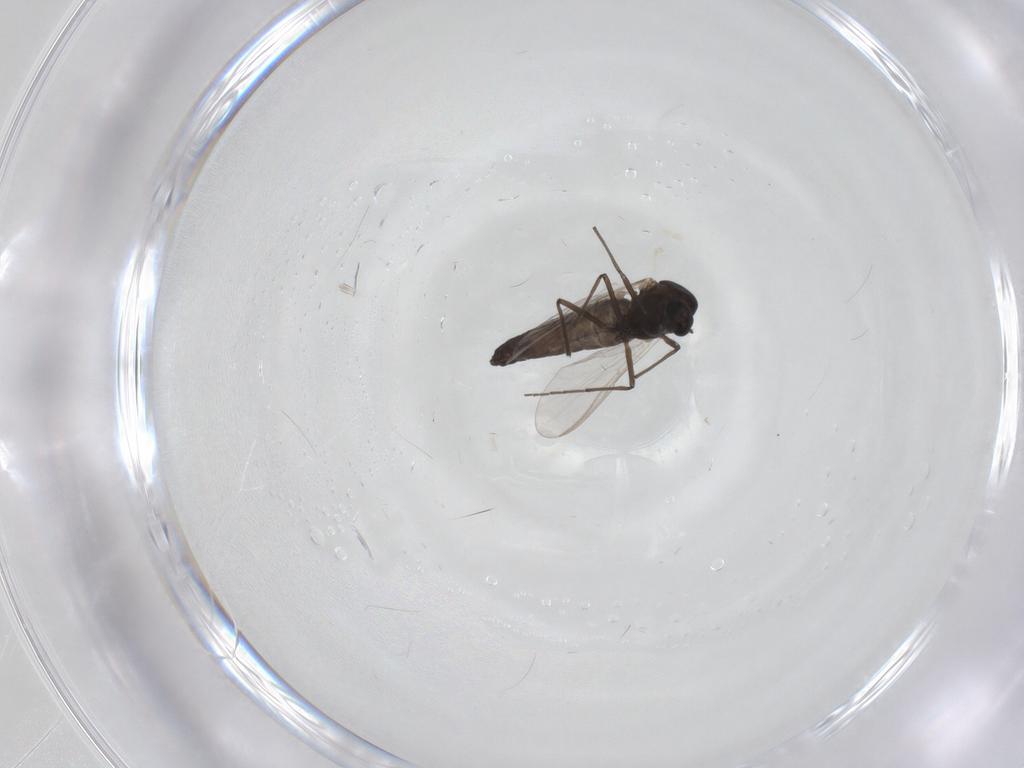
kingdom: Animalia
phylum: Arthropoda
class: Insecta
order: Diptera
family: Chironomidae
